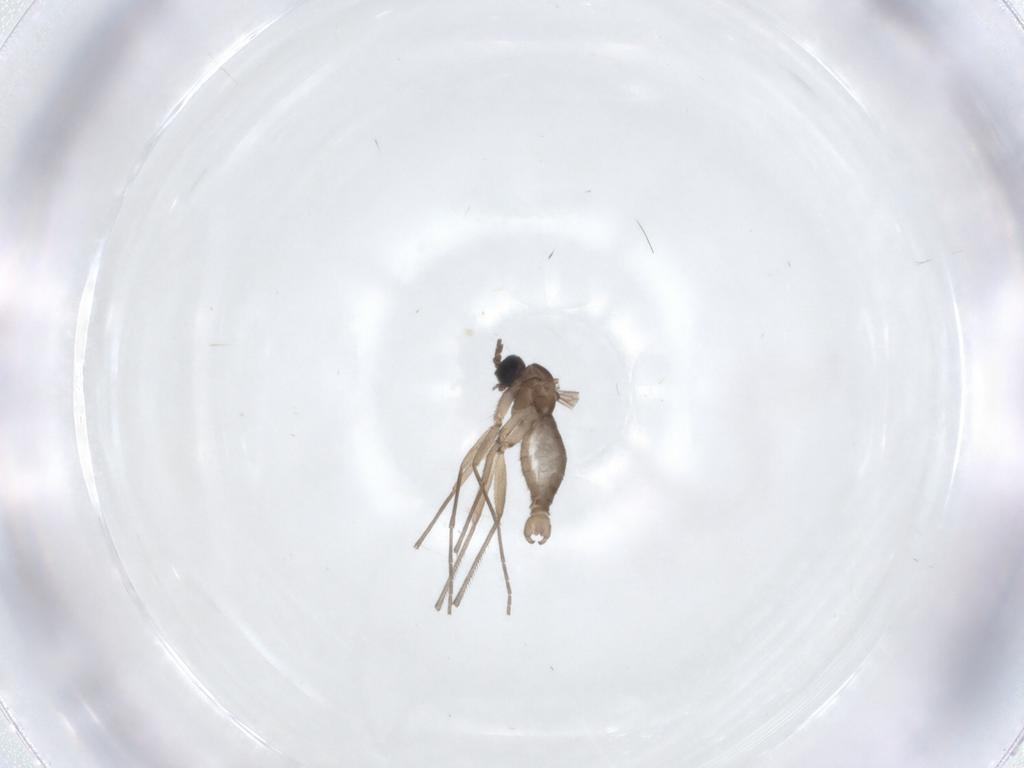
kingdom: Animalia
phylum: Arthropoda
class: Insecta
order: Diptera
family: Sciaridae
